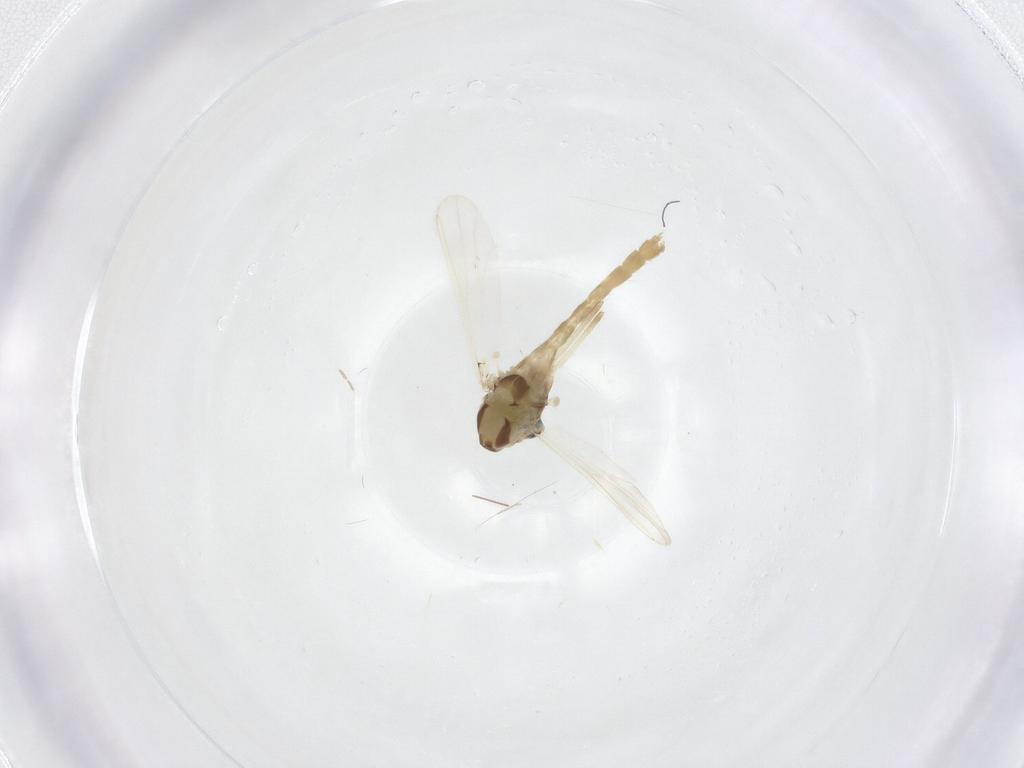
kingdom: Animalia
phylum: Arthropoda
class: Insecta
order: Diptera
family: Chironomidae
